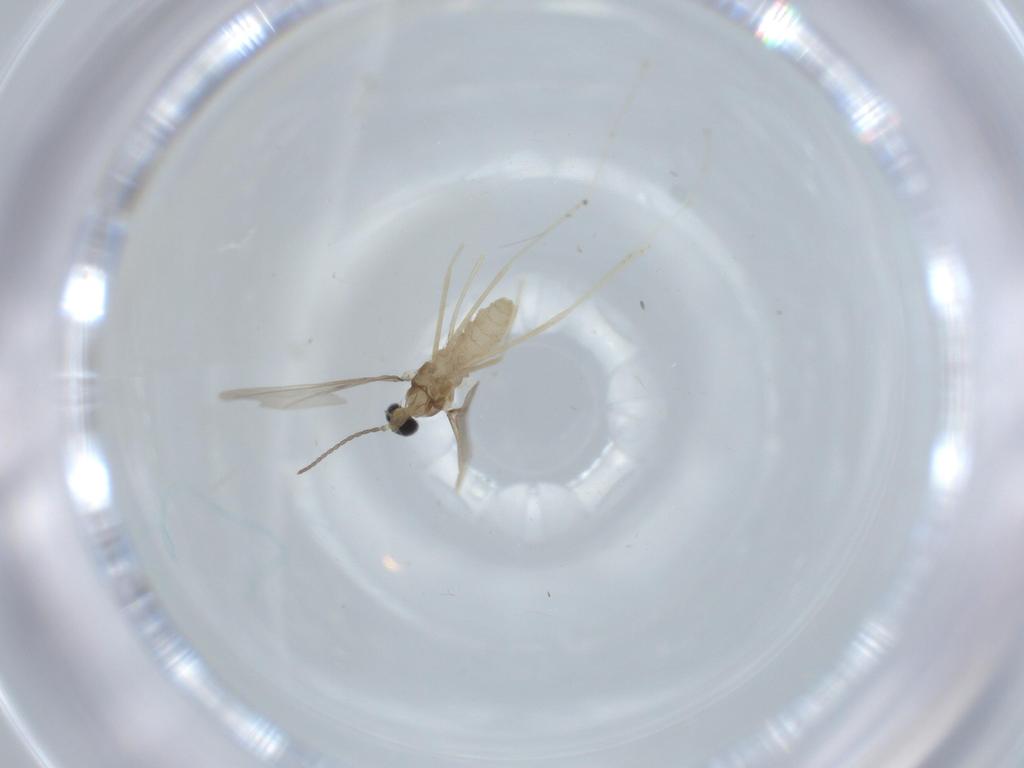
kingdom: Animalia
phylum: Arthropoda
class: Insecta
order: Diptera
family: Cecidomyiidae
